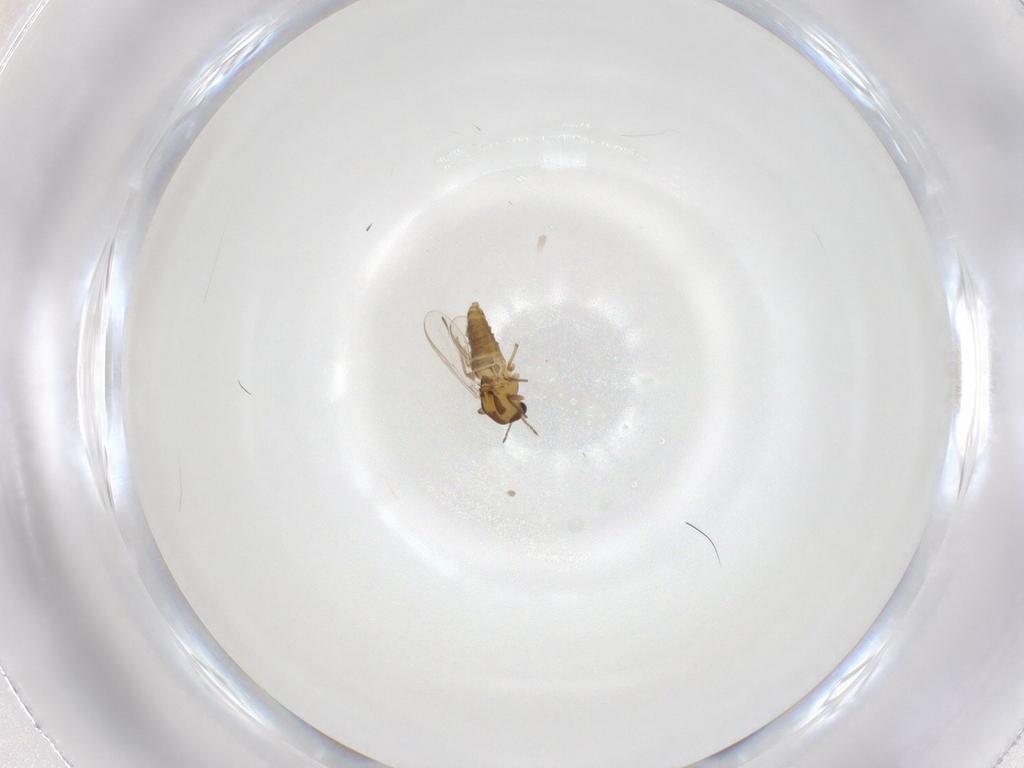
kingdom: Animalia
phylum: Arthropoda
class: Insecta
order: Diptera
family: Chironomidae
